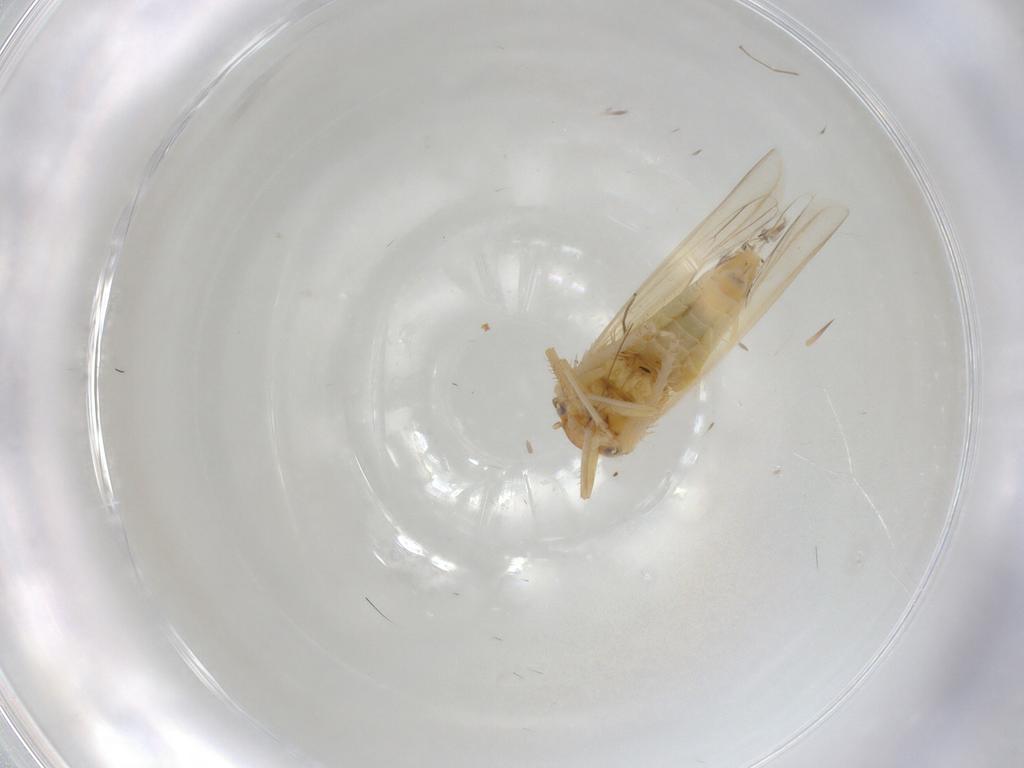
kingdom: Animalia
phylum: Arthropoda
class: Insecta
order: Hemiptera
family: Cicadellidae
